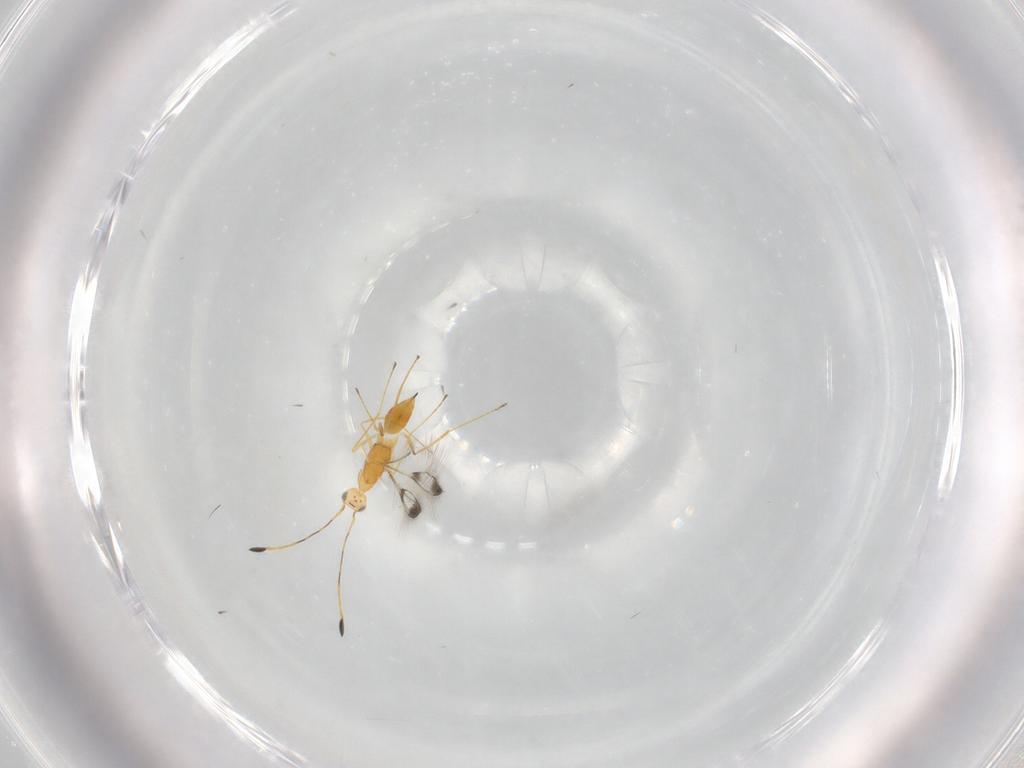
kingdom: Animalia
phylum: Arthropoda
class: Insecta
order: Hymenoptera
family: Mymaridae
